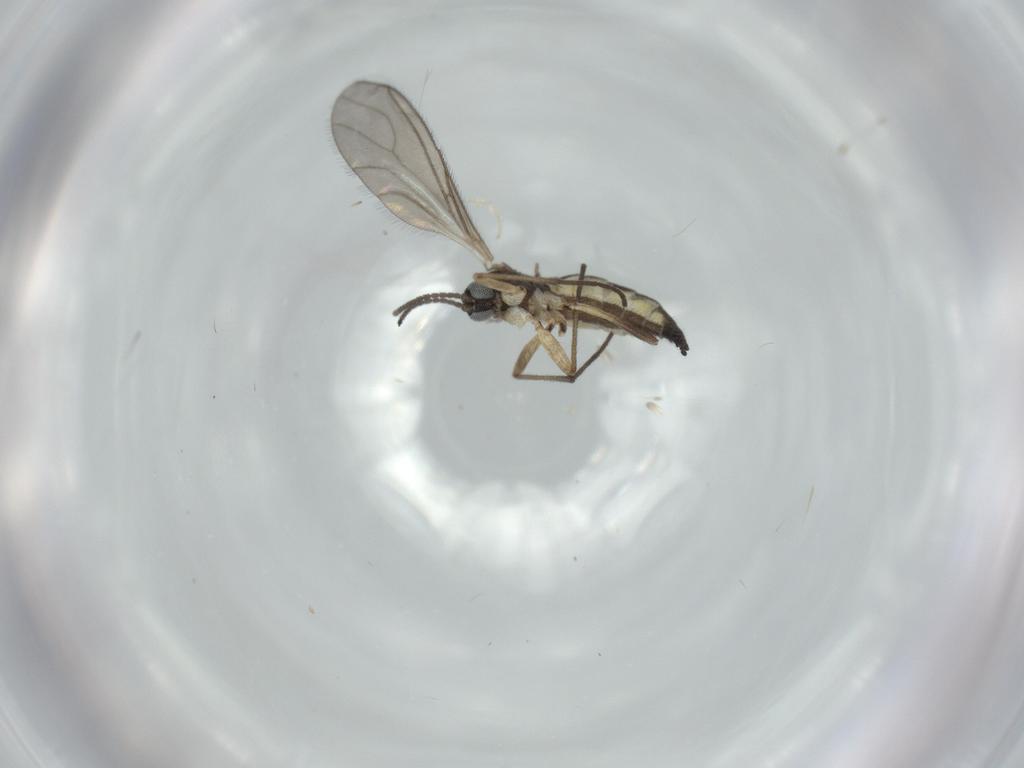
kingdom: Animalia
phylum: Arthropoda
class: Insecta
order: Diptera
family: Sciaridae
